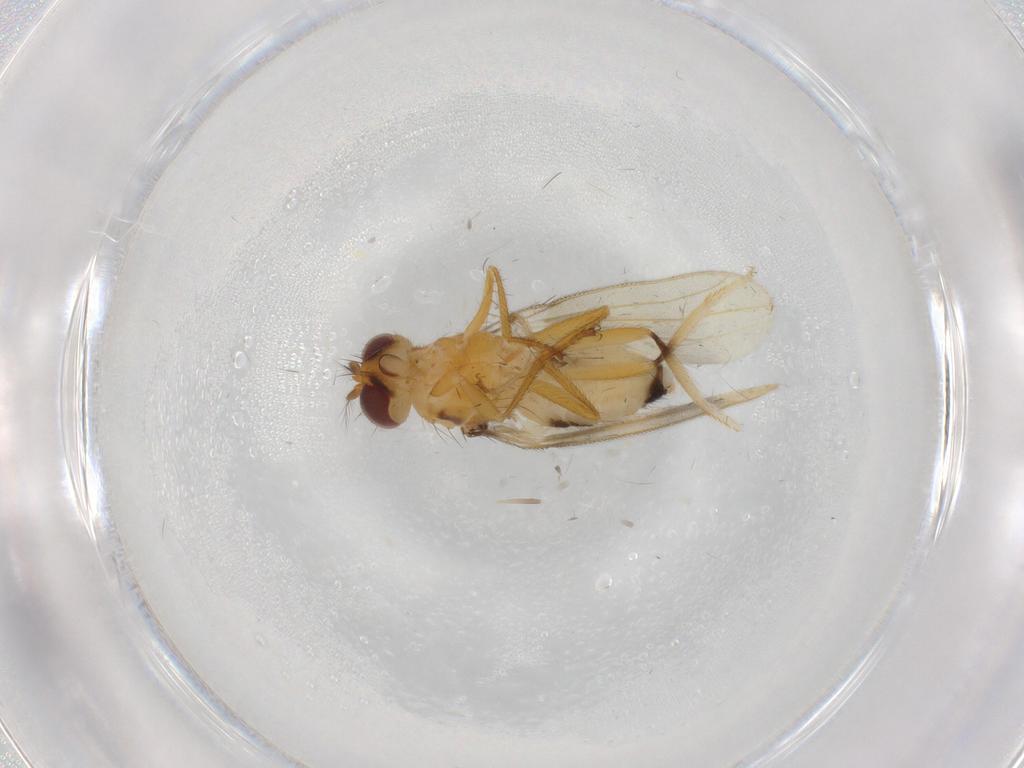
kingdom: Animalia
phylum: Arthropoda
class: Insecta
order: Diptera
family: Periscelididae
